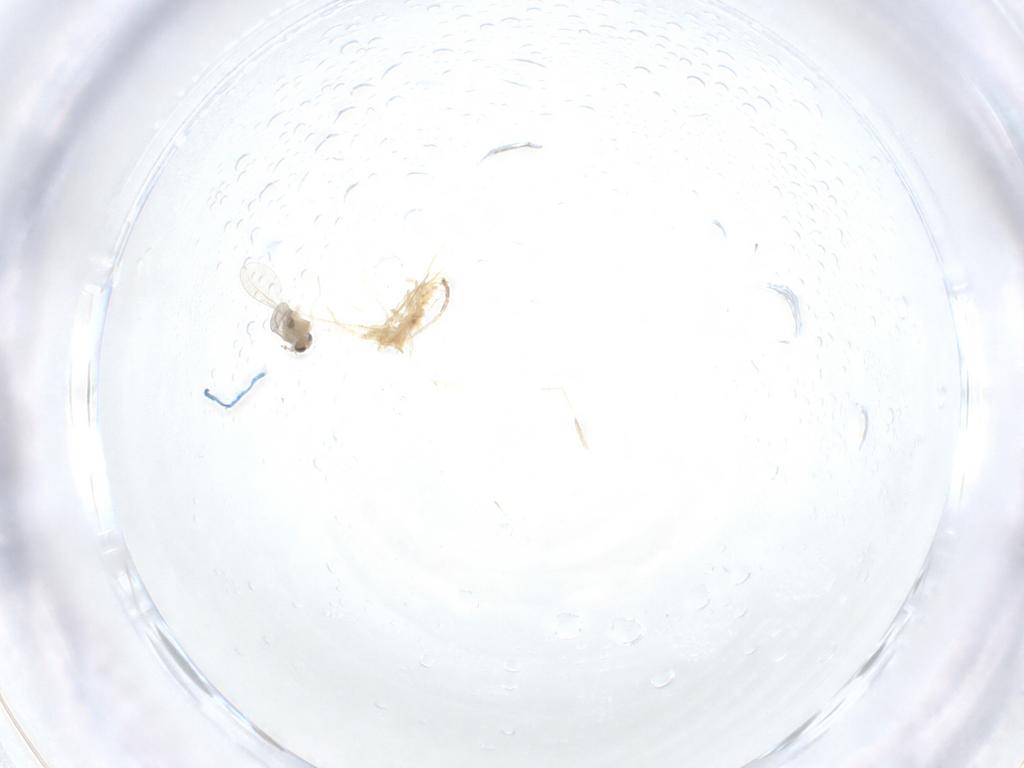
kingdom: Animalia
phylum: Arthropoda
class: Insecta
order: Diptera
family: Cecidomyiidae
